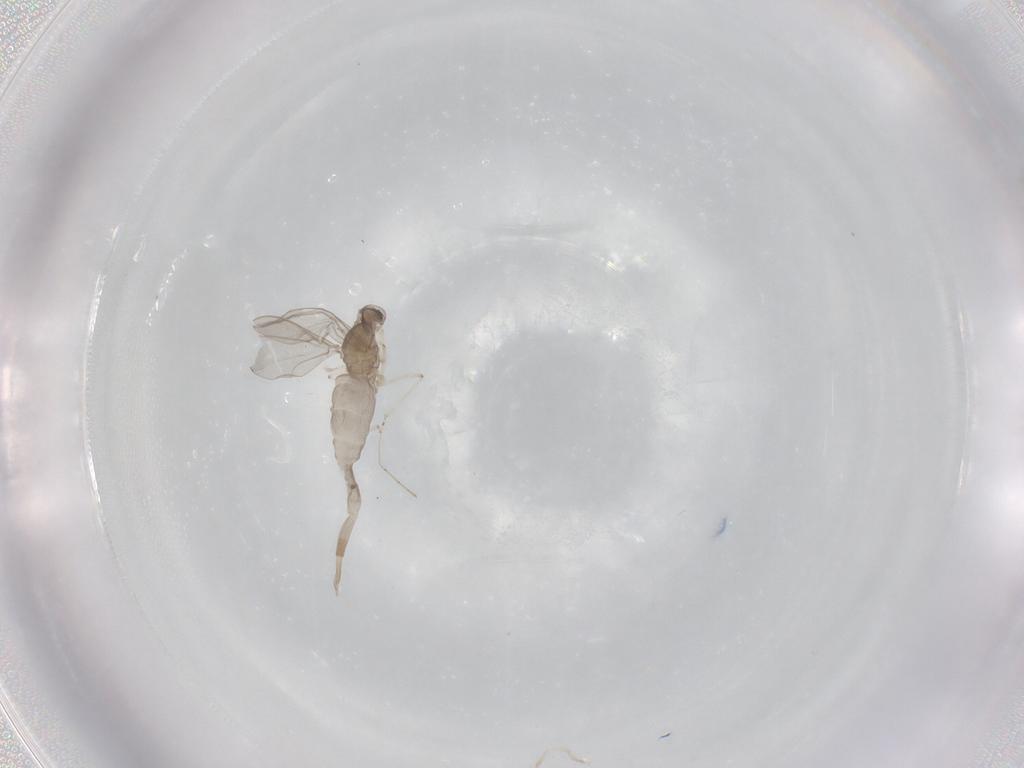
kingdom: Animalia
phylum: Arthropoda
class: Insecta
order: Diptera
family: Cecidomyiidae
